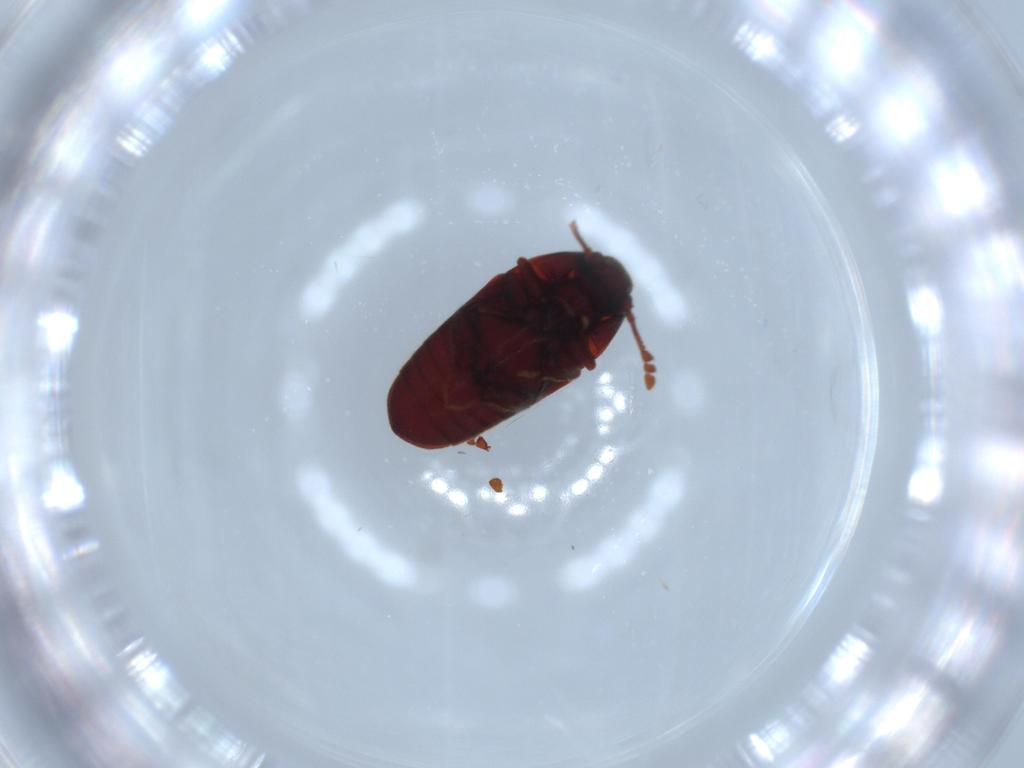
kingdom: Animalia
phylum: Arthropoda
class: Insecta
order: Coleoptera
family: Throscidae
